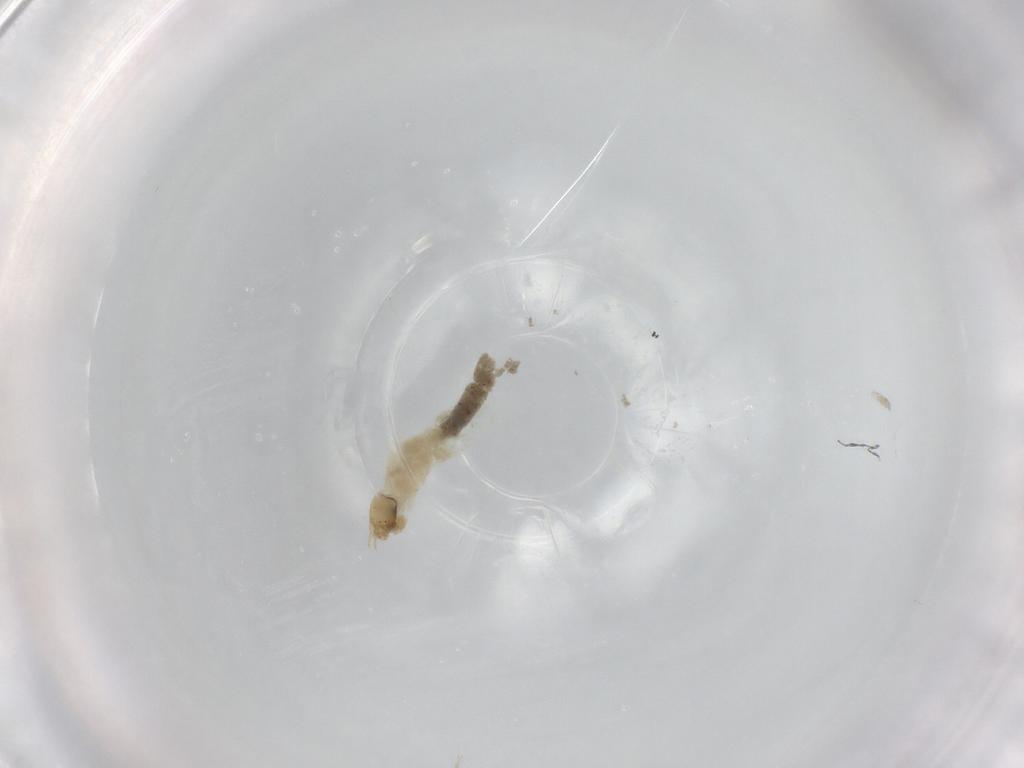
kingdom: Animalia
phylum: Arthropoda
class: Insecta
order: Diptera
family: Chironomidae
